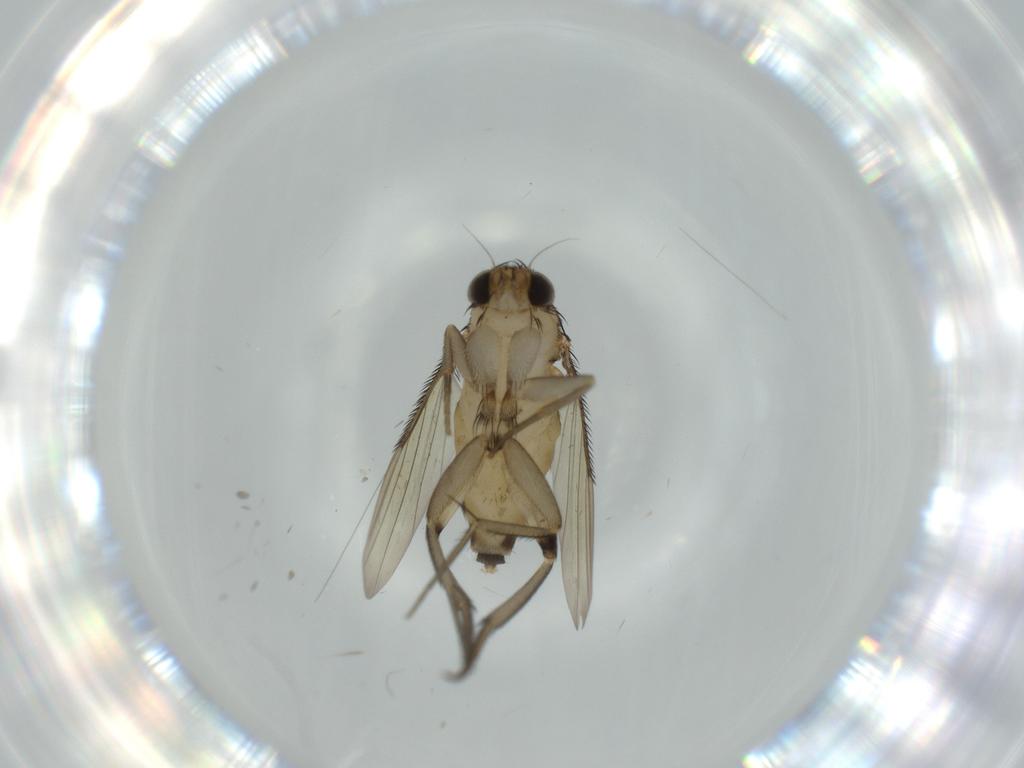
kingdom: Animalia
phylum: Arthropoda
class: Insecta
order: Diptera
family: Phoridae
